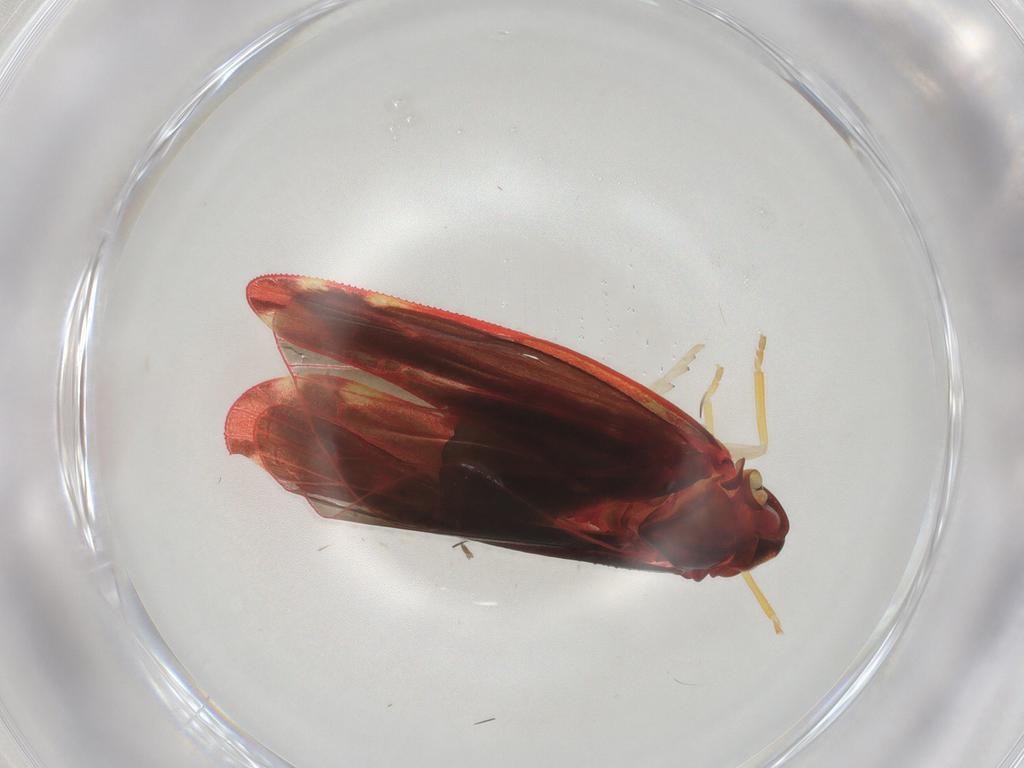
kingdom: Animalia
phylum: Arthropoda
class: Insecta
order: Hemiptera
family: Derbidae
